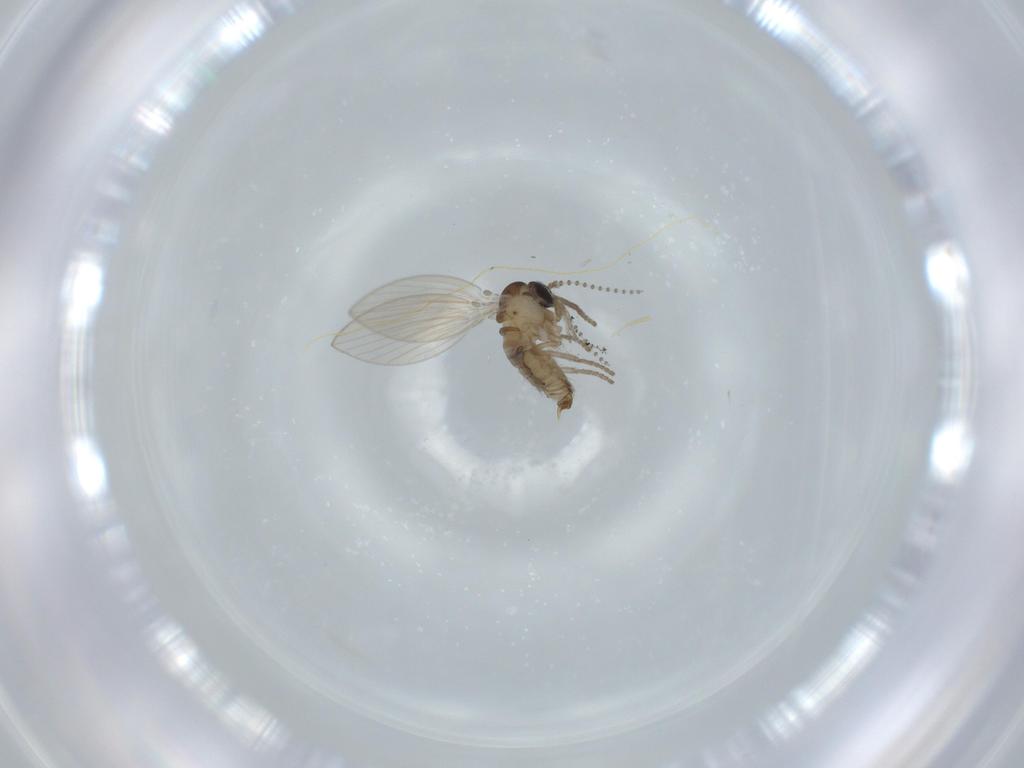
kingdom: Animalia
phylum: Arthropoda
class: Insecta
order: Diptera
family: Psychodidae
